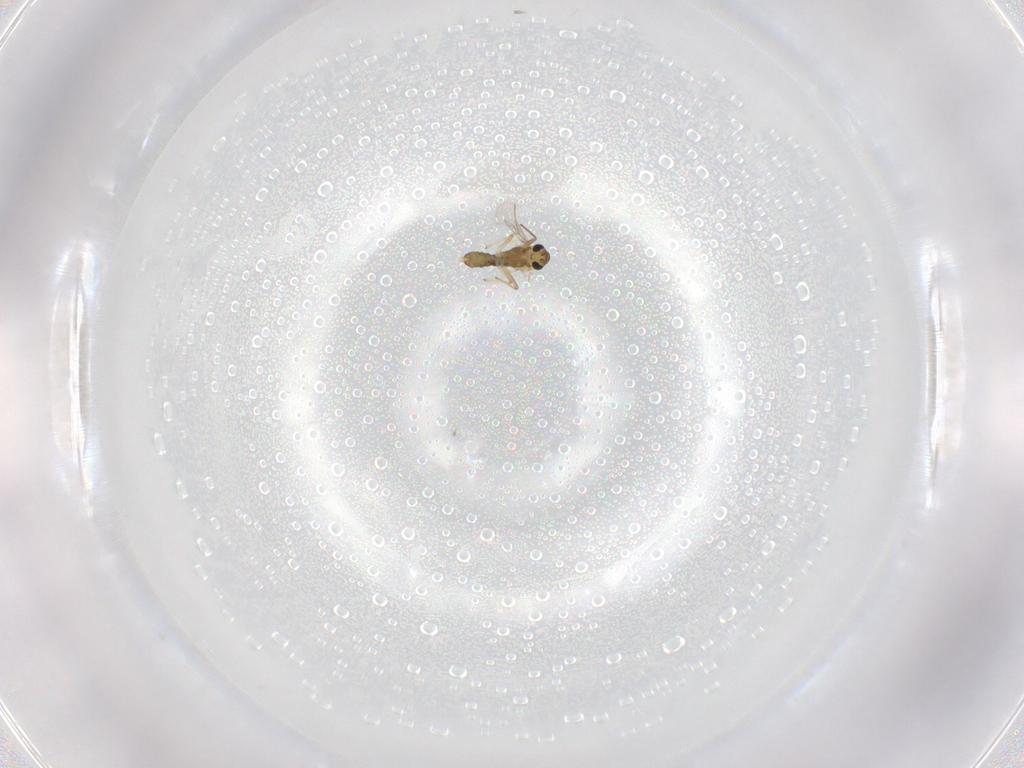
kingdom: Animalia
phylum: Arthropoda
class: Insecta
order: Diptera
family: Chironomidae
